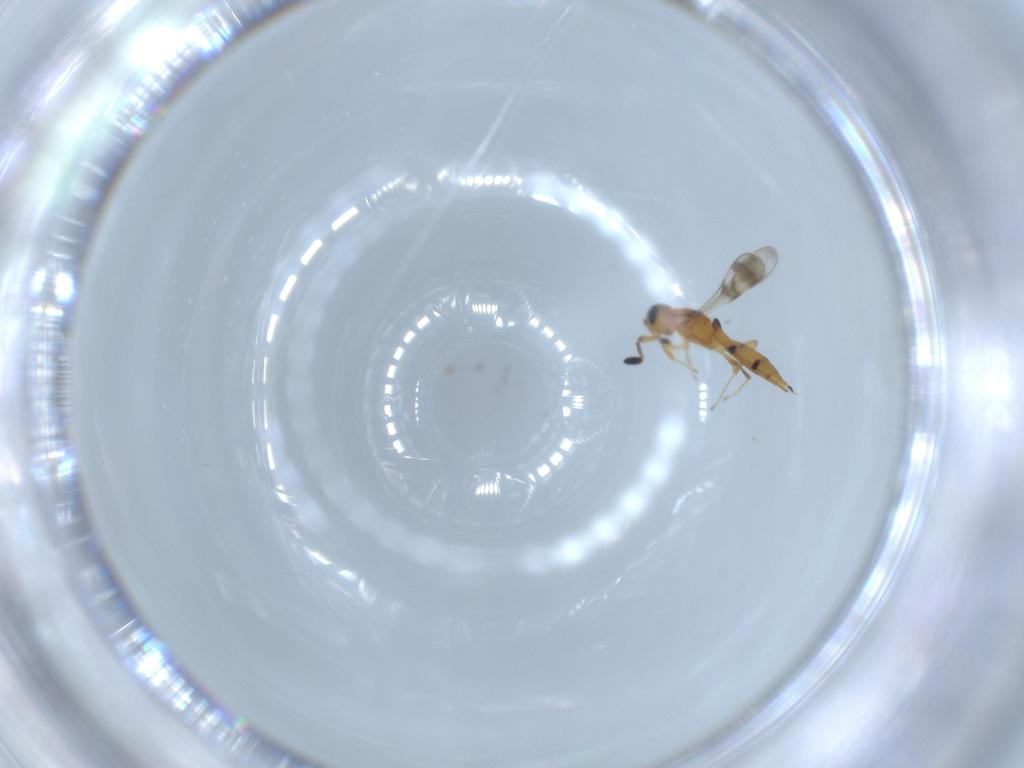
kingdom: Animalia
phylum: Arthropoda
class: Insecta
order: Hymenoptera
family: Scelionidae
